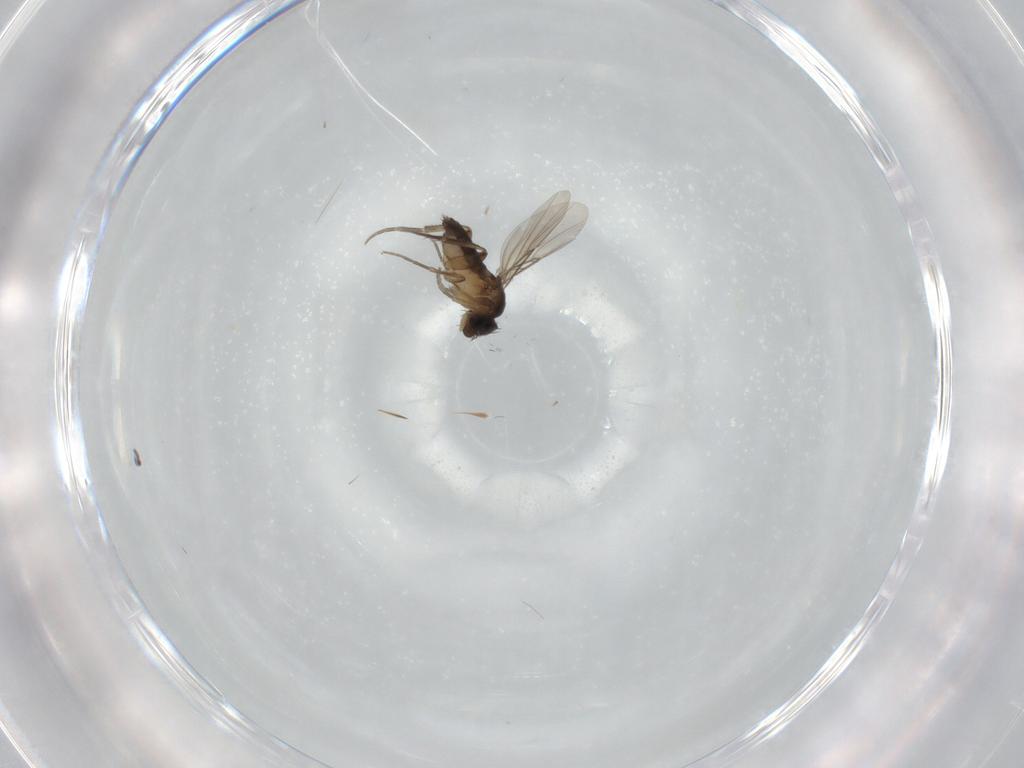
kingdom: Animalia
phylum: Arthropoda
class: Insecta
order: Diptera
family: Phoridae
